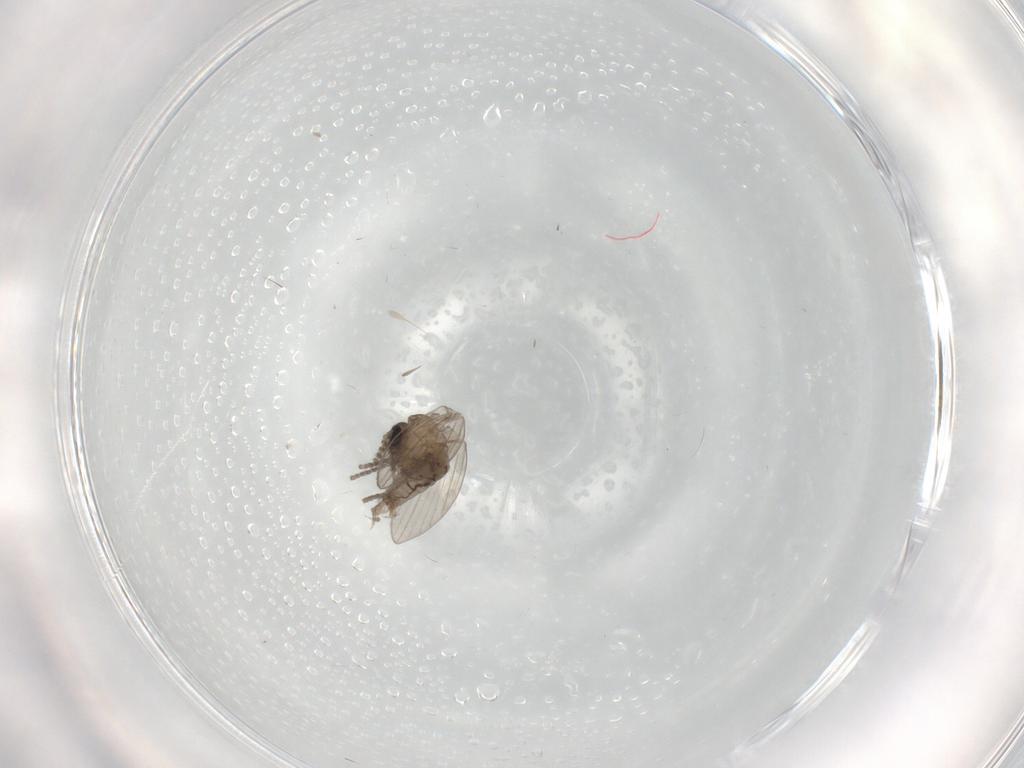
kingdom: Animalia
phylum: Arthropoda
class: Insecta
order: Diptera
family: Psychodidae
